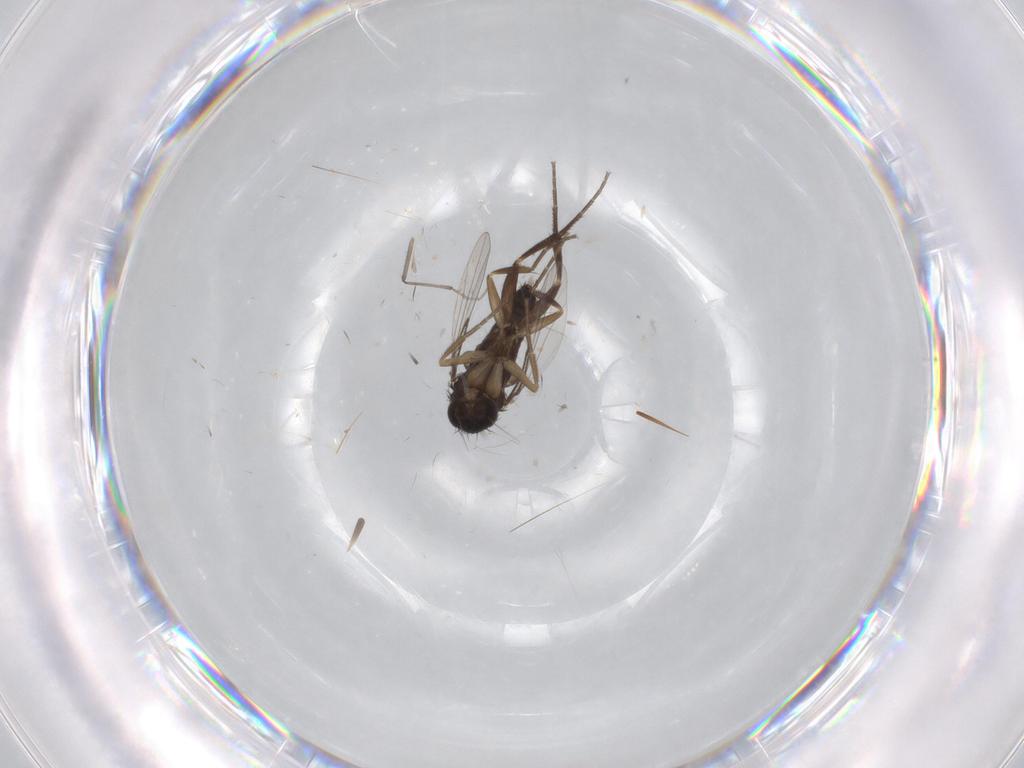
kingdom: Animalia
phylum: Arthropoda
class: Insecta
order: Diptera
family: Phoridae
